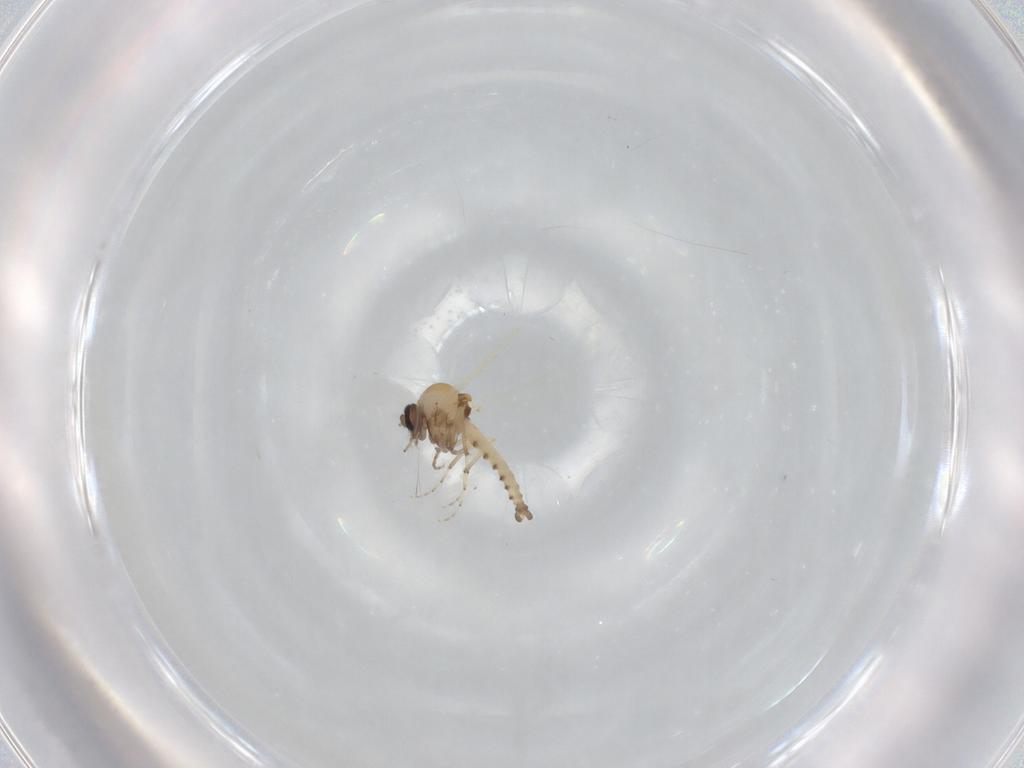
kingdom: Animalia
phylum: Arthropoda
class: Insecta
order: Diptera
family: Ceratopogonidae
